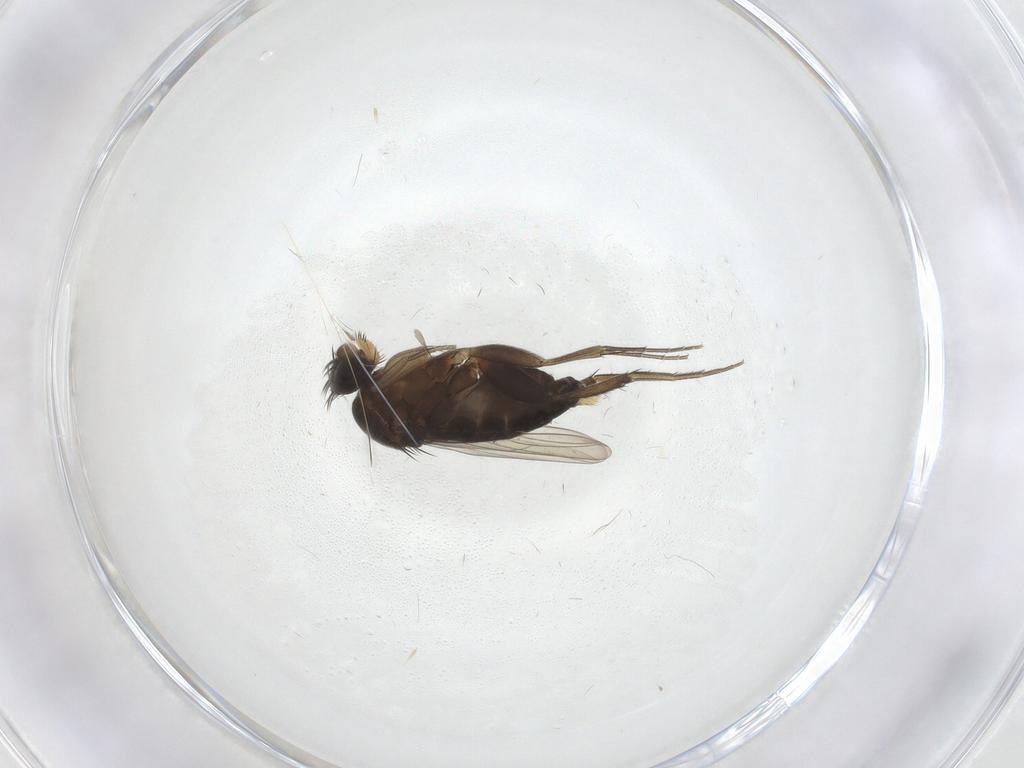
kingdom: Animalia
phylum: Arthropoda
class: Insecta
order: Diptera
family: Phoridae
